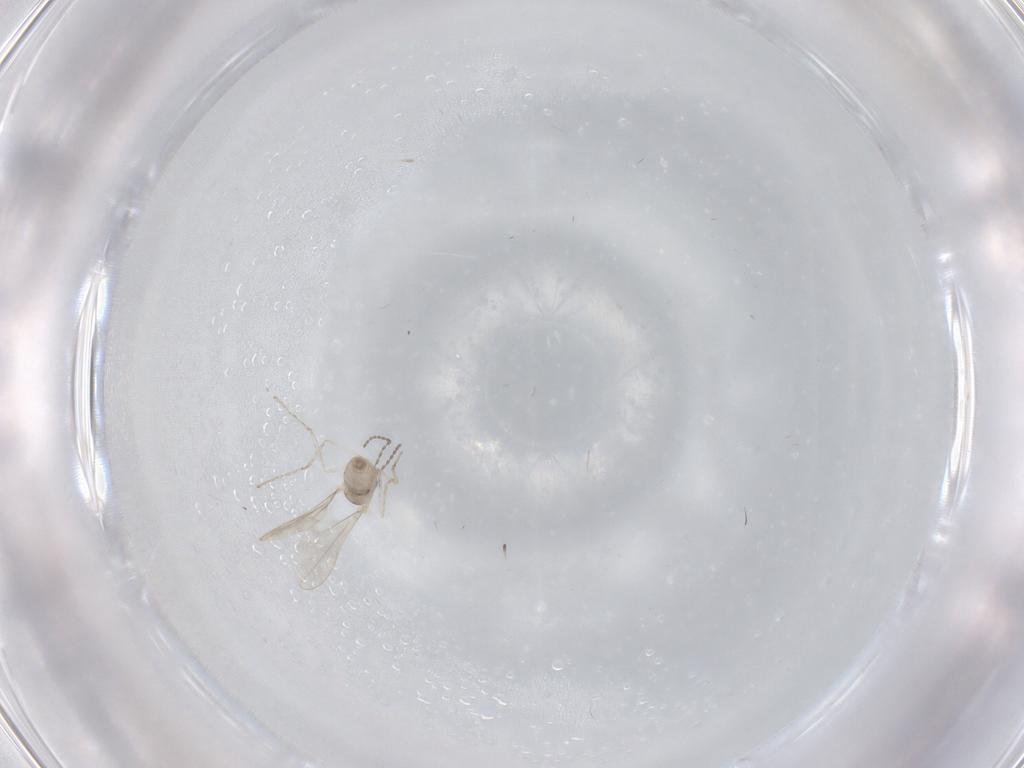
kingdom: Animalia
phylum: Arthropoda
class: Insecta
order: Diptera
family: Cecidomyiidae
